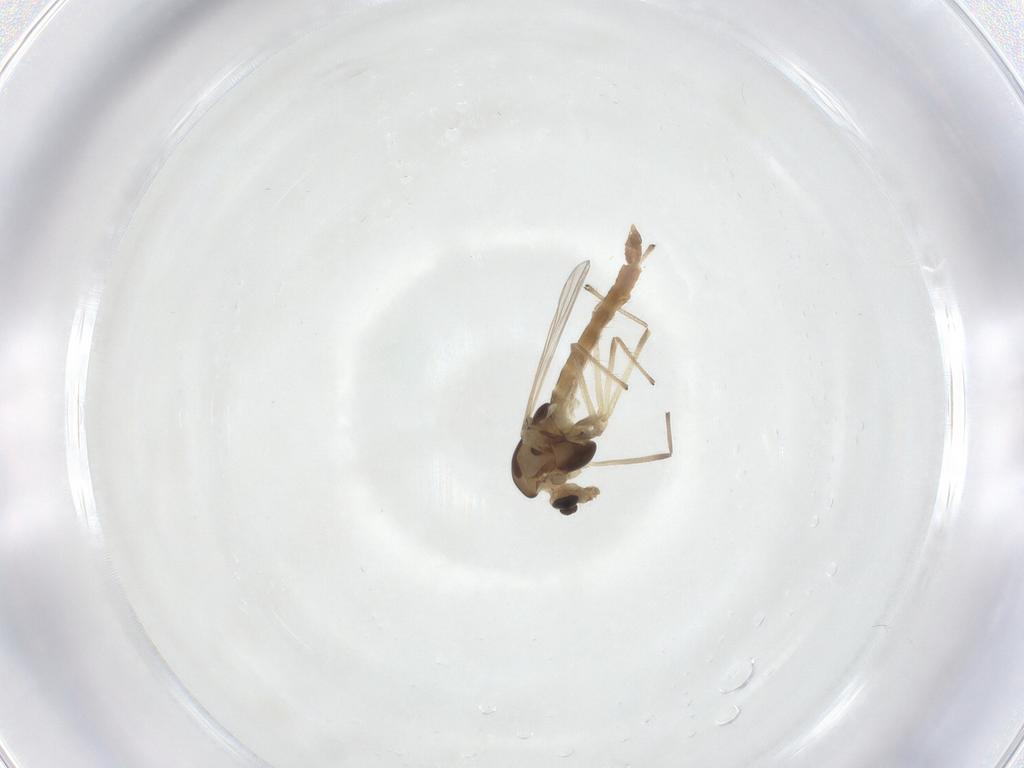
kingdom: Animalia
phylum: Arthropoda
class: Insecta
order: Diptera
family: Chironomidae
